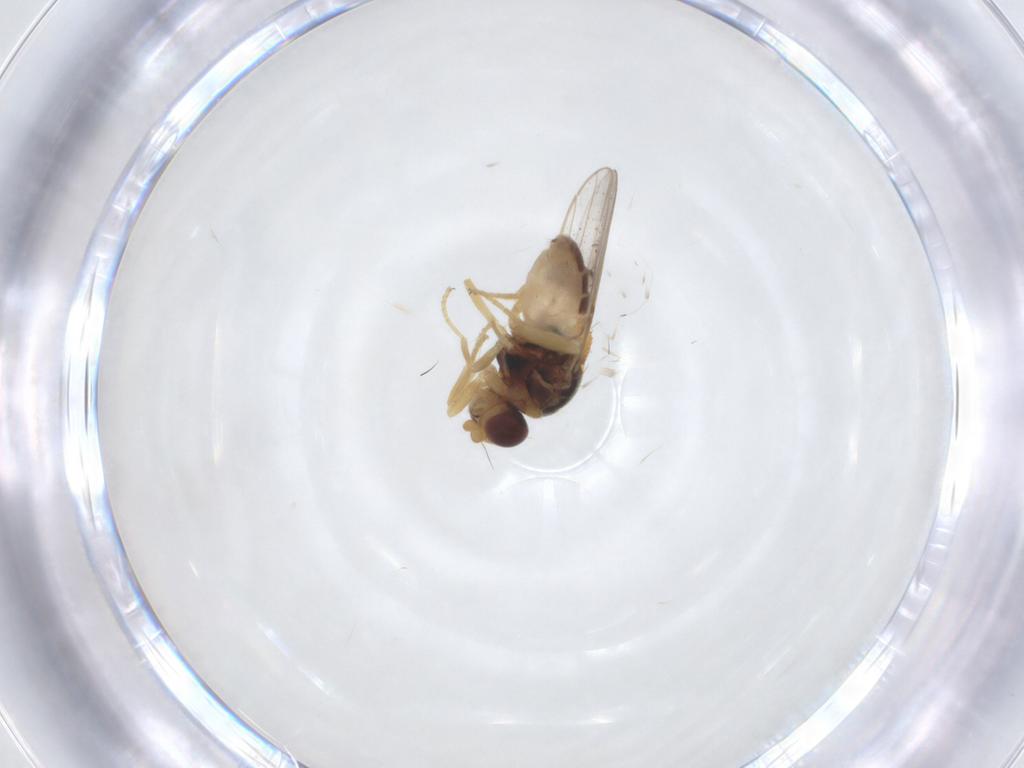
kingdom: Animalia
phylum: Arthropoda
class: Insecta
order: Diptera
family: Chloropidae
